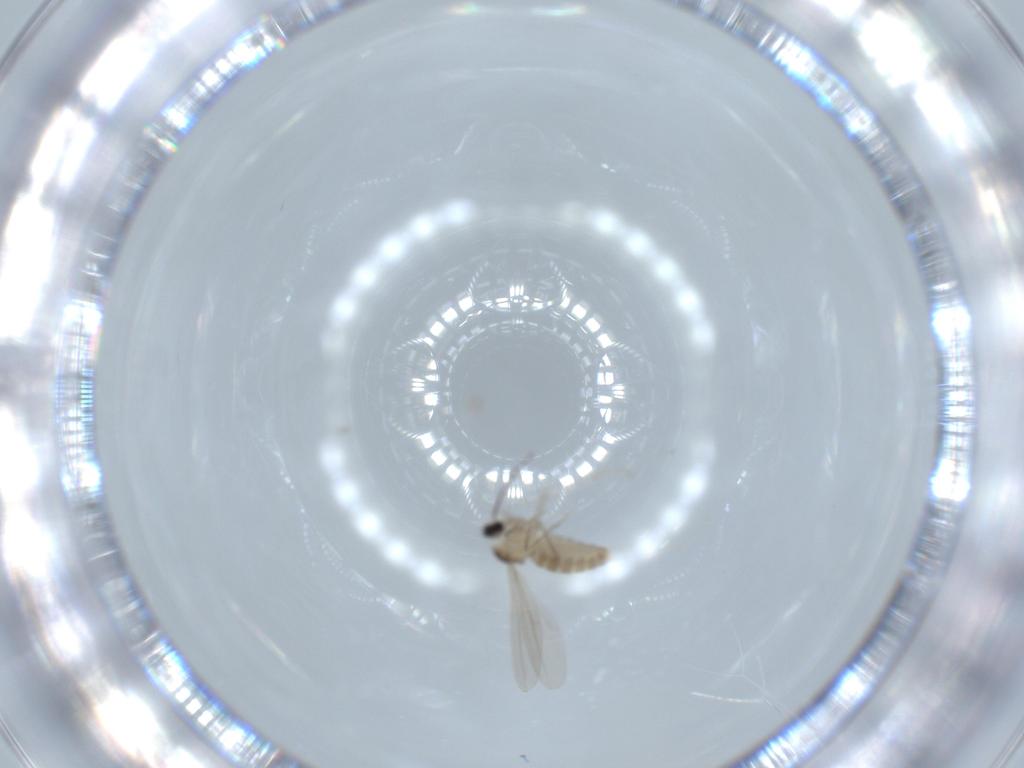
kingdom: Animalia
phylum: Arthropoda
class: Insecta
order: Diptera
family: Cecidomyiidae
